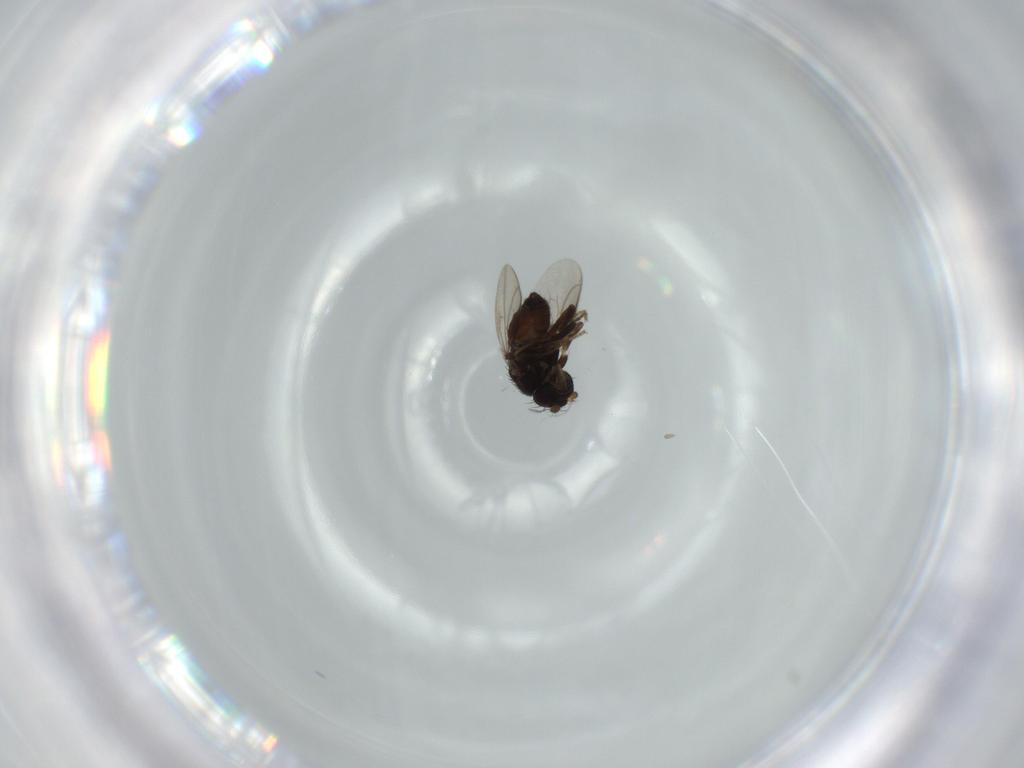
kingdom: Animalia
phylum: Arthropoda
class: Insecta
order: Diptera
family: Sphaeroceridae
